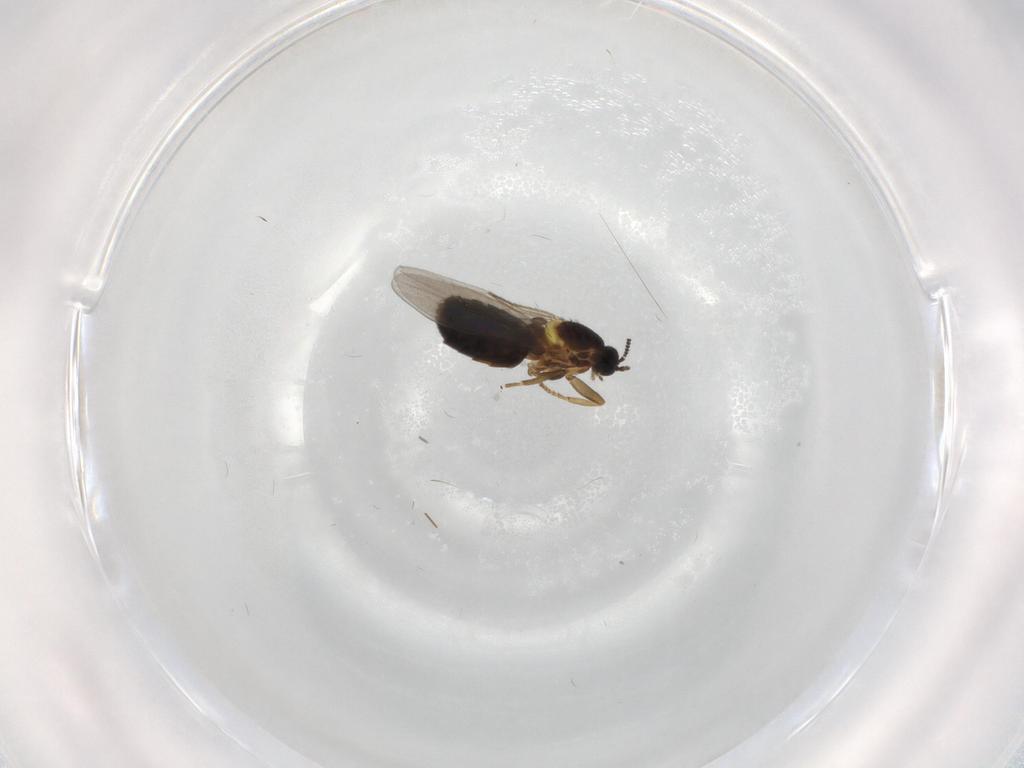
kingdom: Animalia
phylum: Arthropoda
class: Insecta
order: Diptera
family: Scatopsidae
